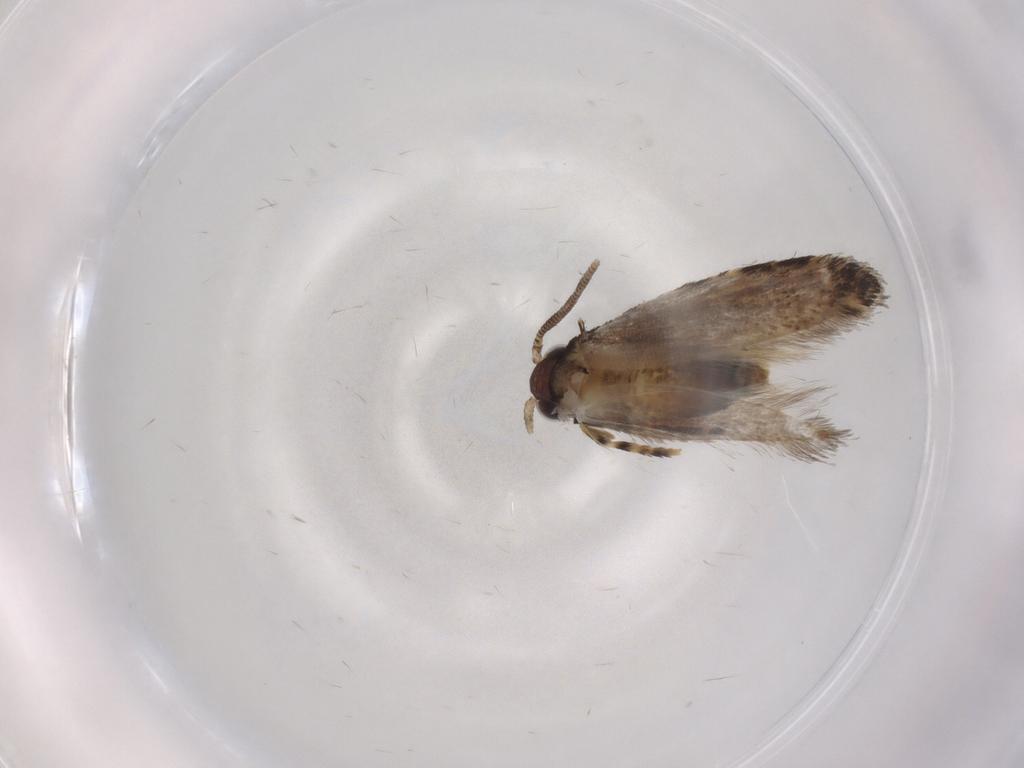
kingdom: Animalia
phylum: Arthropoda
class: Insecta
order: Lepidoptera
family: Tineidae
